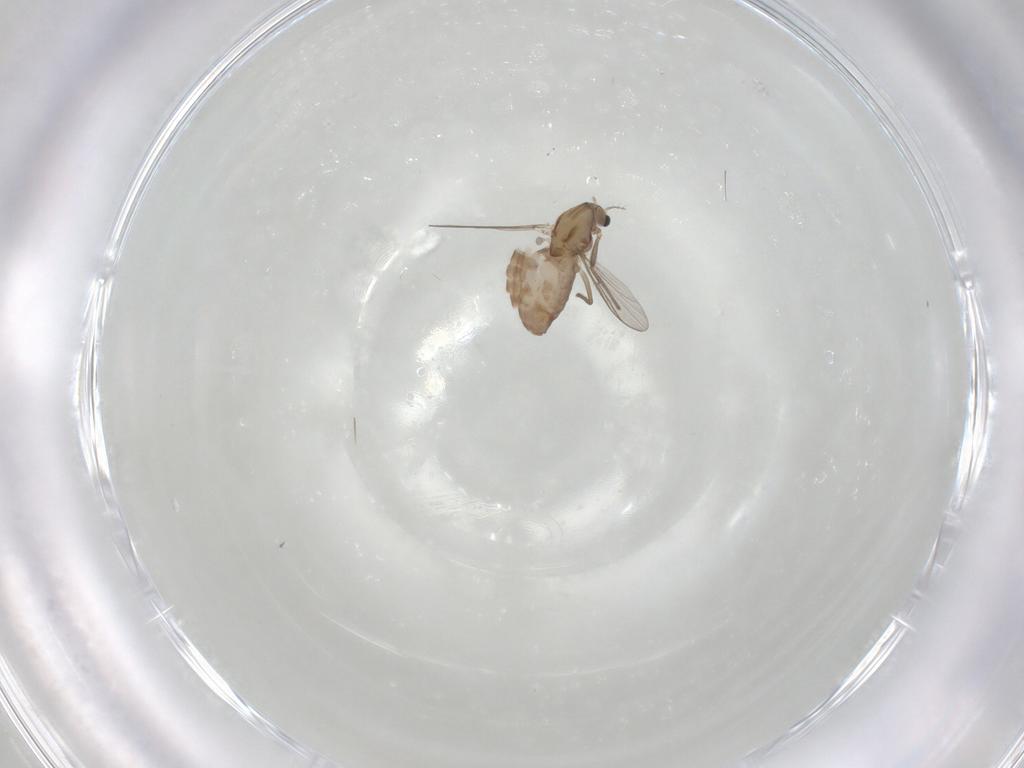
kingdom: Animalia
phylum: Arthropoda
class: Insecta
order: Diptera
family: Chironomidae
